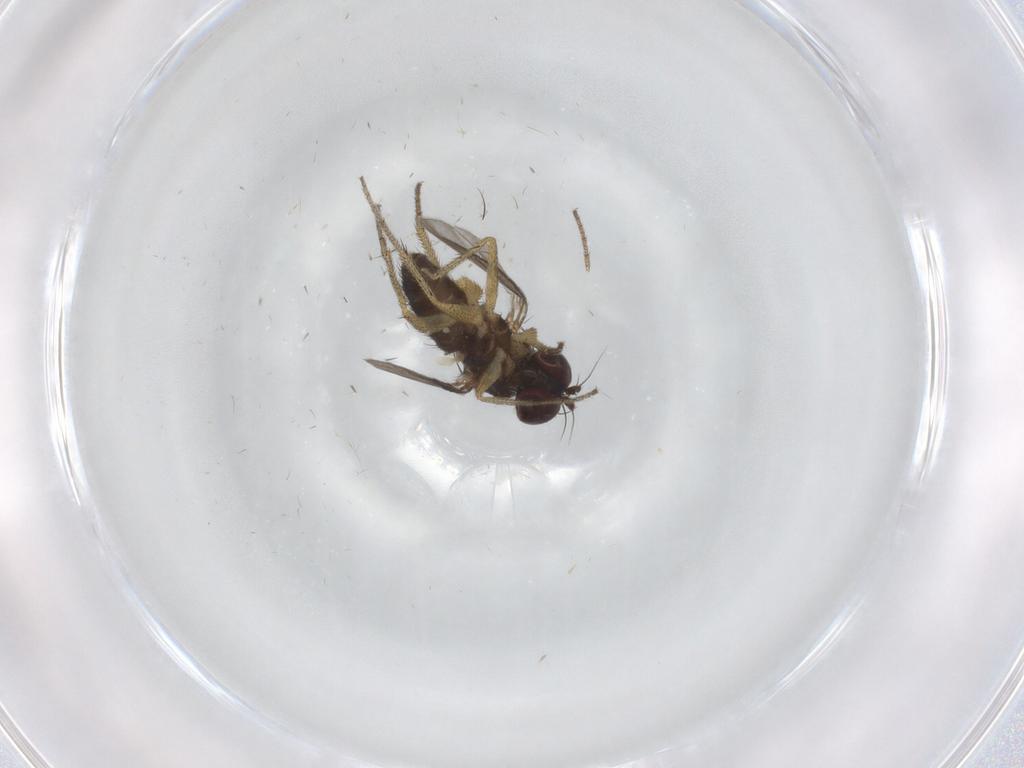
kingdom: Animalia
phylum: Arthropoda
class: Insecta
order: Diptera
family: Dolichopodidae
